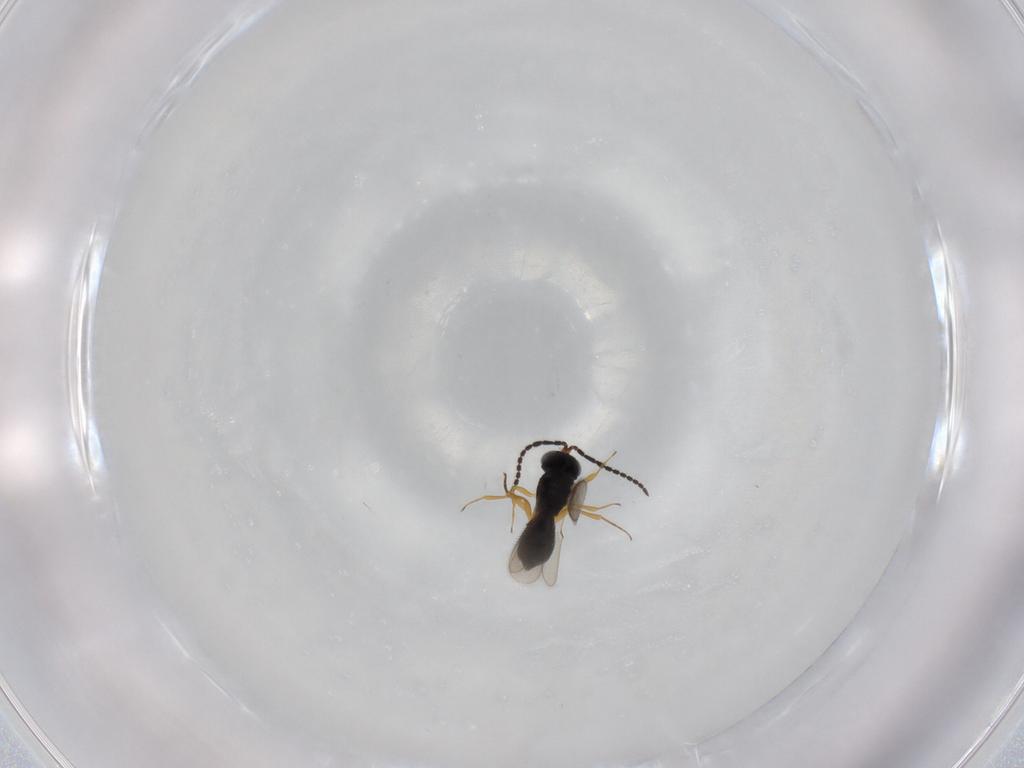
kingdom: Animalia
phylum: Arthropoda
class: Insecta
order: Hymenoptera
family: Scelionidae
